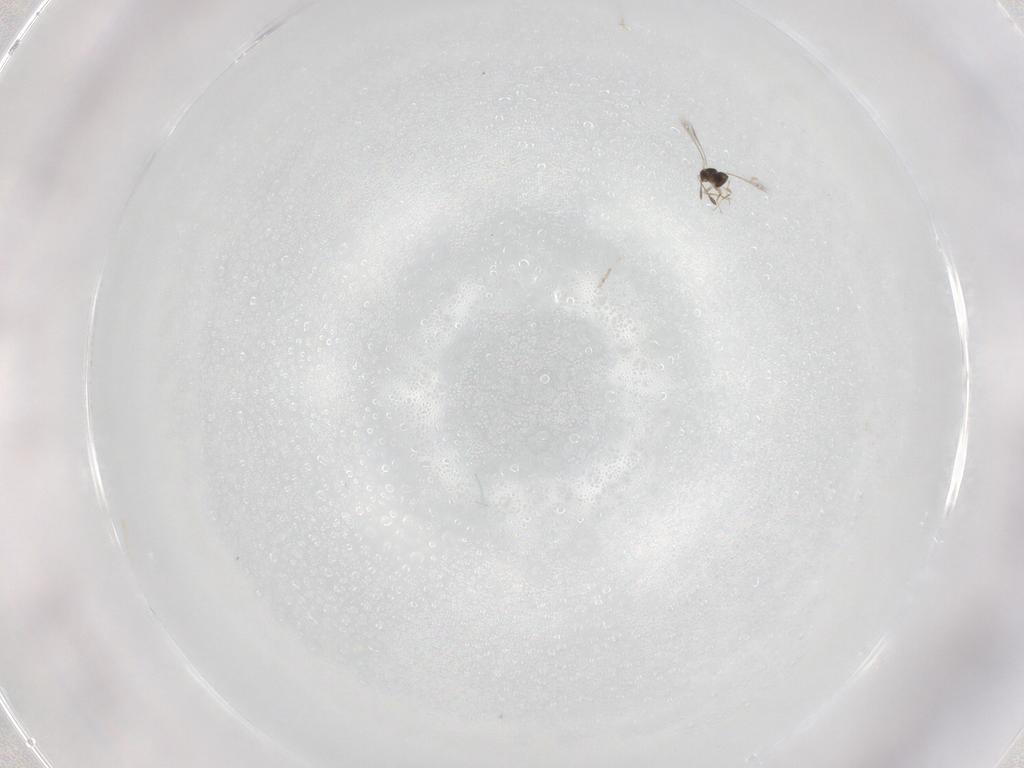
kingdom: Animalia
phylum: Arthropoda
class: Insecta
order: Hymenoptera
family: Mymaridae
